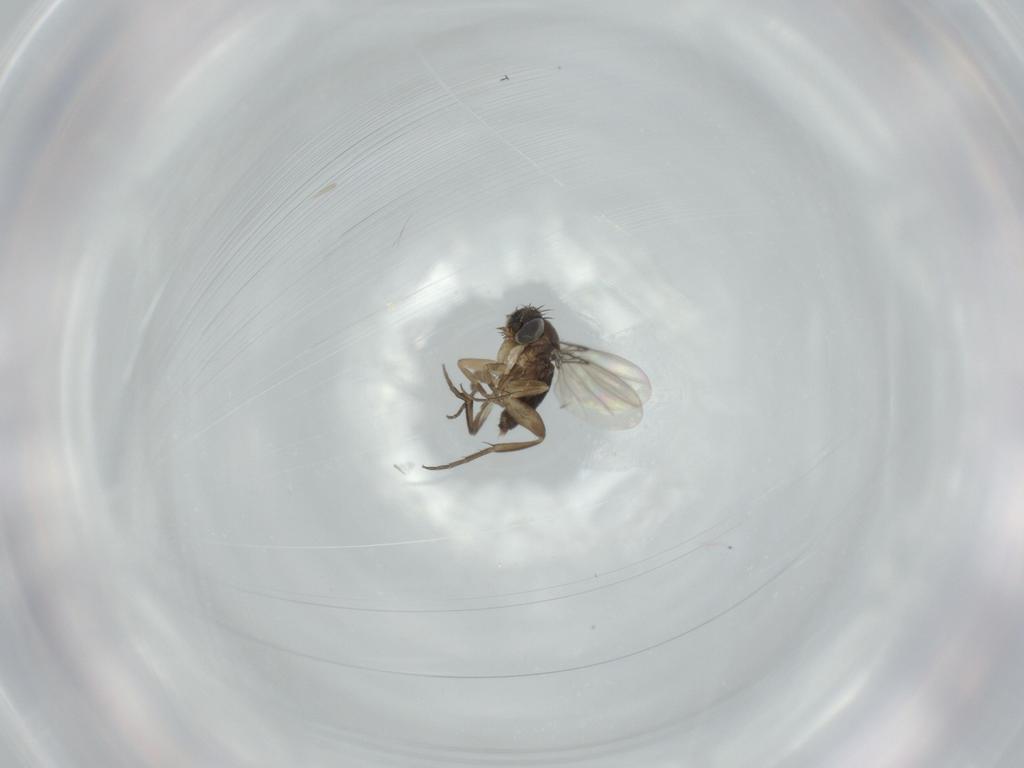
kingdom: Animalia
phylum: Arthropoda
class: Insecta
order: Diptera
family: Phoridae
